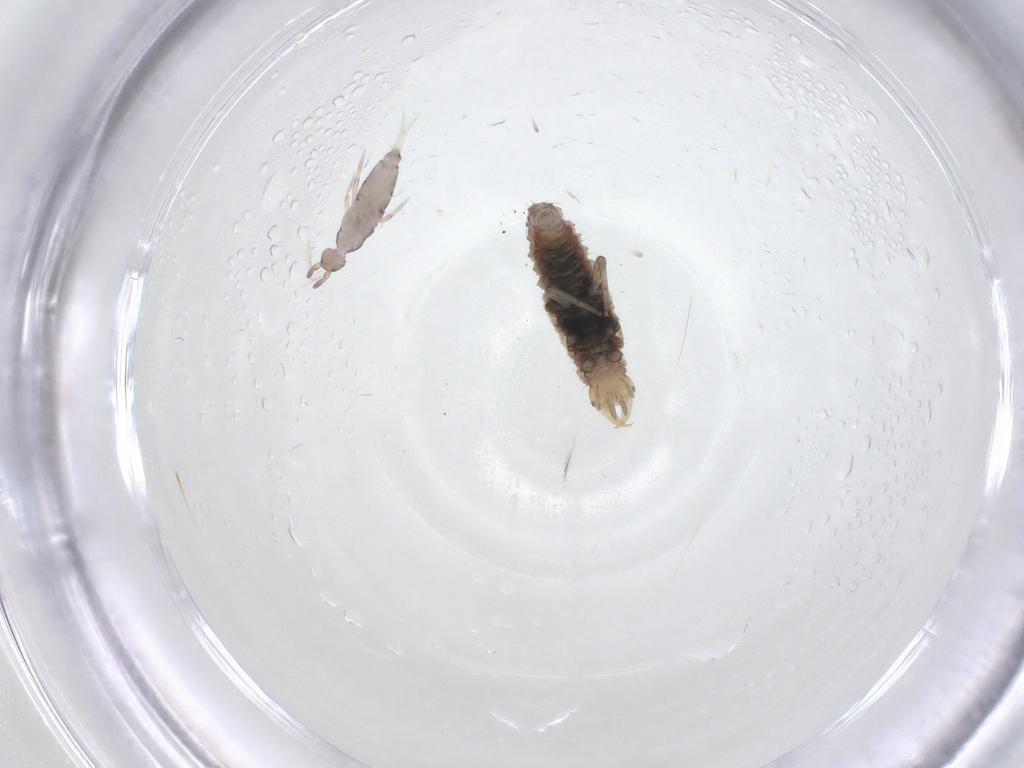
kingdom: Animalia
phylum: Arthropoda
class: Collembola
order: Entomobryomorpha
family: Entomobryidae
